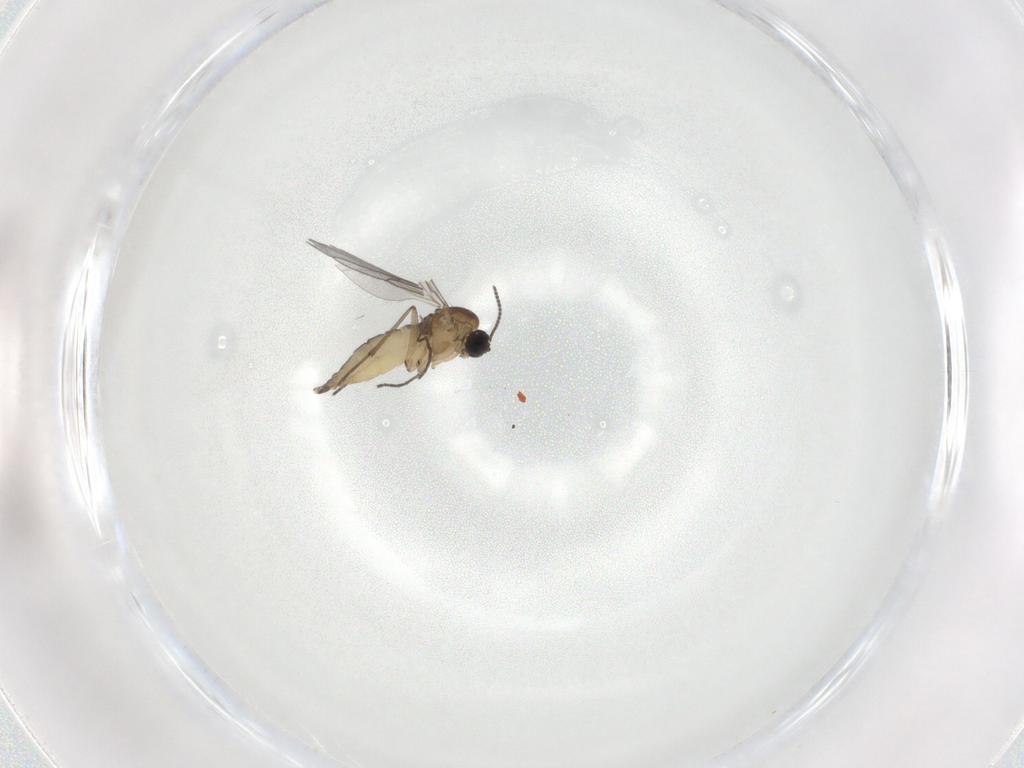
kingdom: Animalia
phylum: Arthropoda
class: Insecta
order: Diptera
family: Sciaridae
